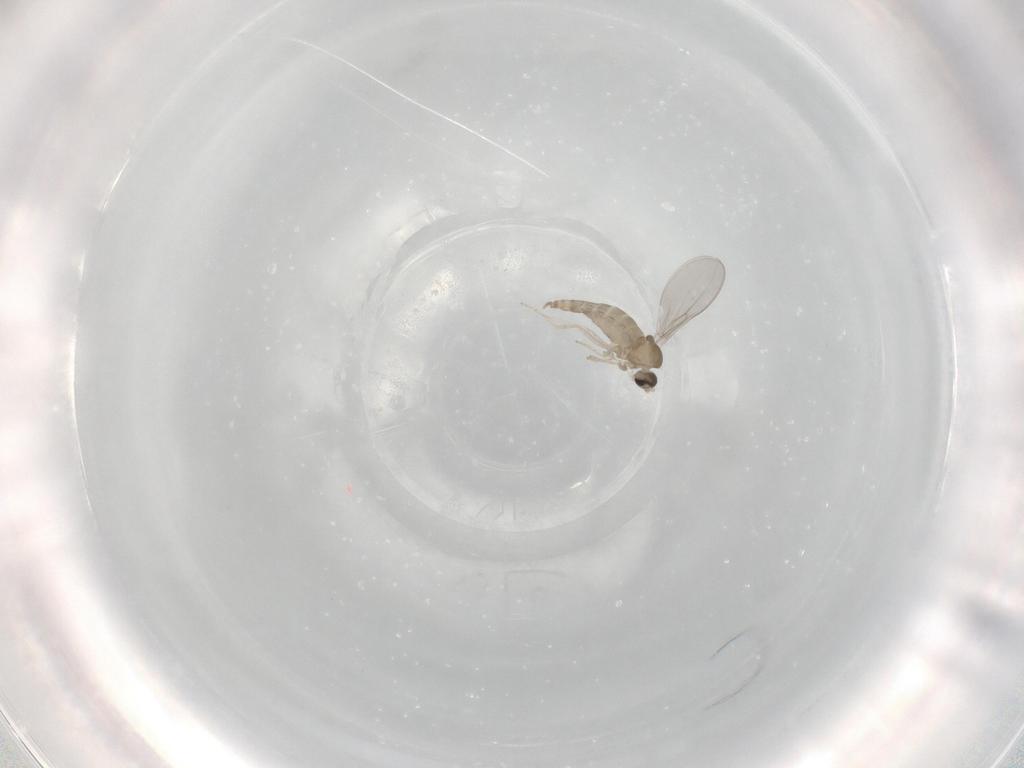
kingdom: Animalia
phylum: Arthropoda
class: Insecta
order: Diptera
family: Cecidomyiidae
